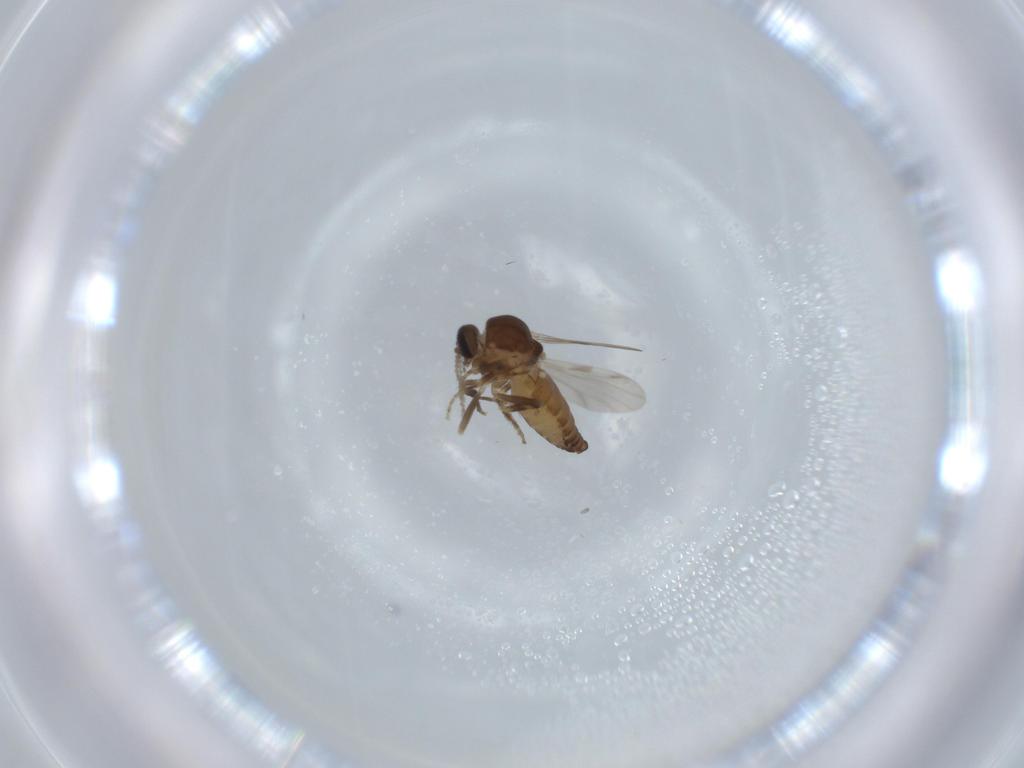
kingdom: Animalia
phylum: Arthropoda
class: Insecta
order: Diptera
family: Ceratopogonidae
